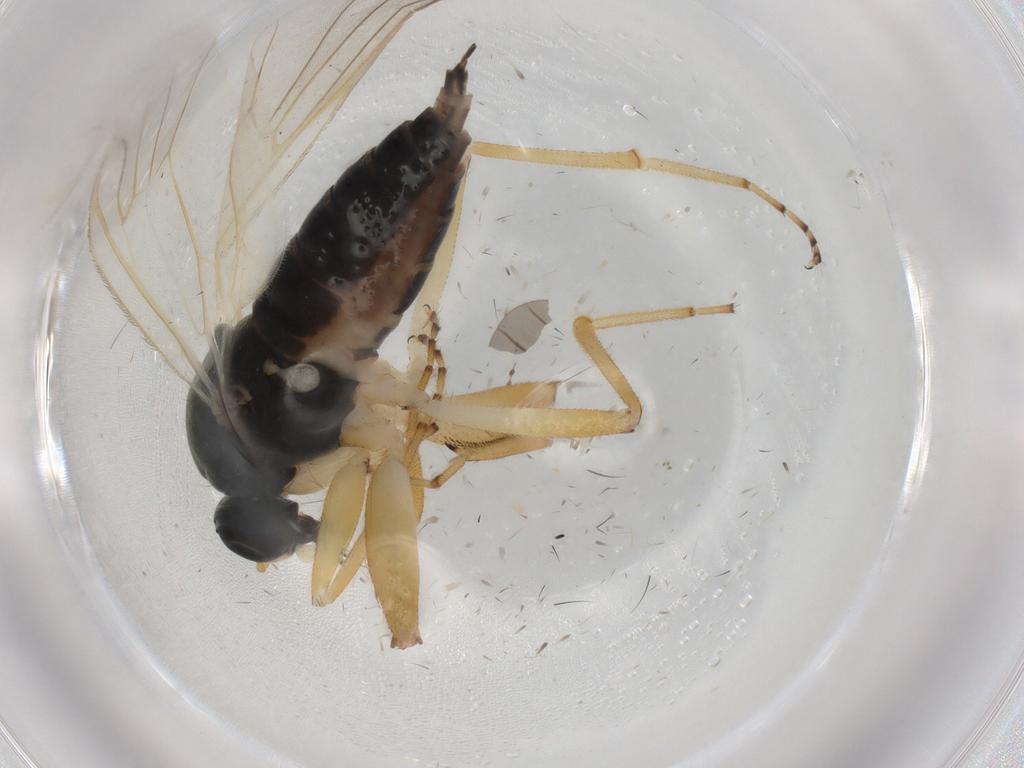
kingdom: Animalia
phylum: Arthropoda
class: Insecta
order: Diptera
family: Hybotidae
